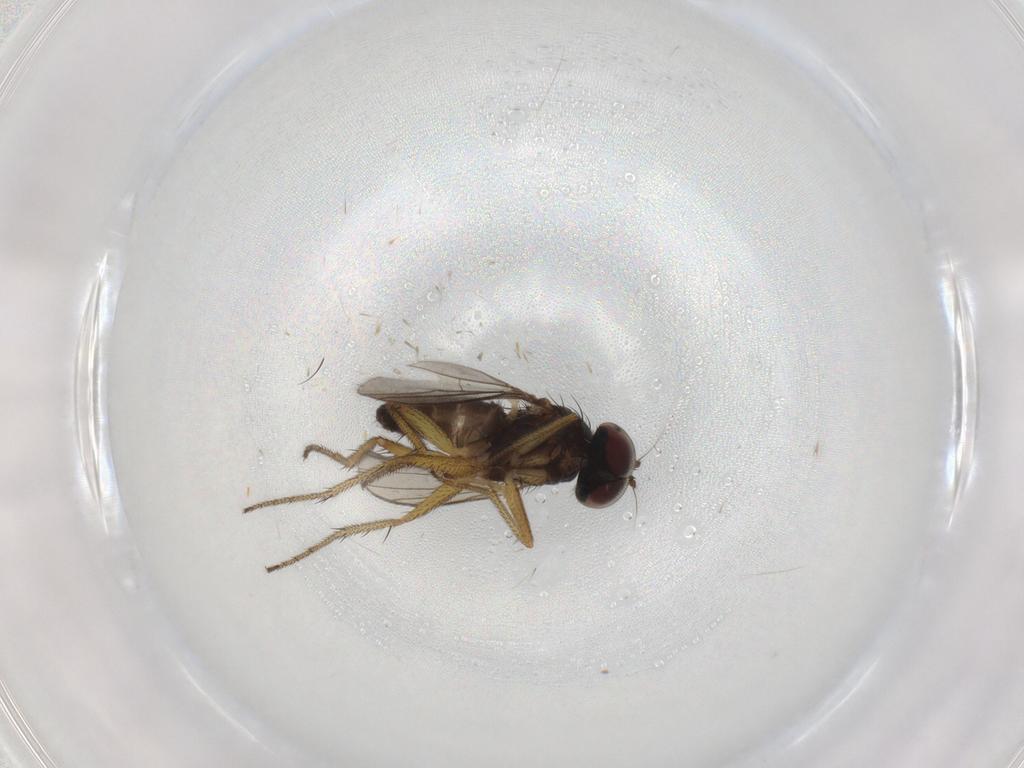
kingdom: Animalia
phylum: Arthropoda
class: Insecta
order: Diptera
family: Dolichopodidae
